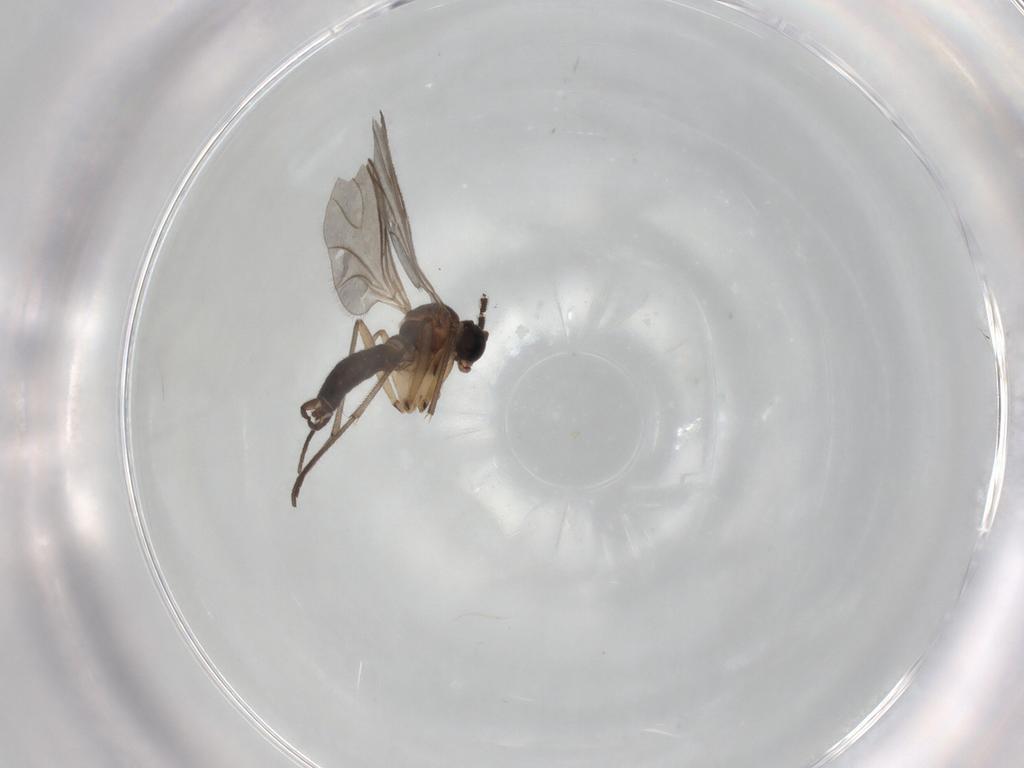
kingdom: Animalia
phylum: Arthropoda
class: Insecta
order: Diptera
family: Sciaridae
